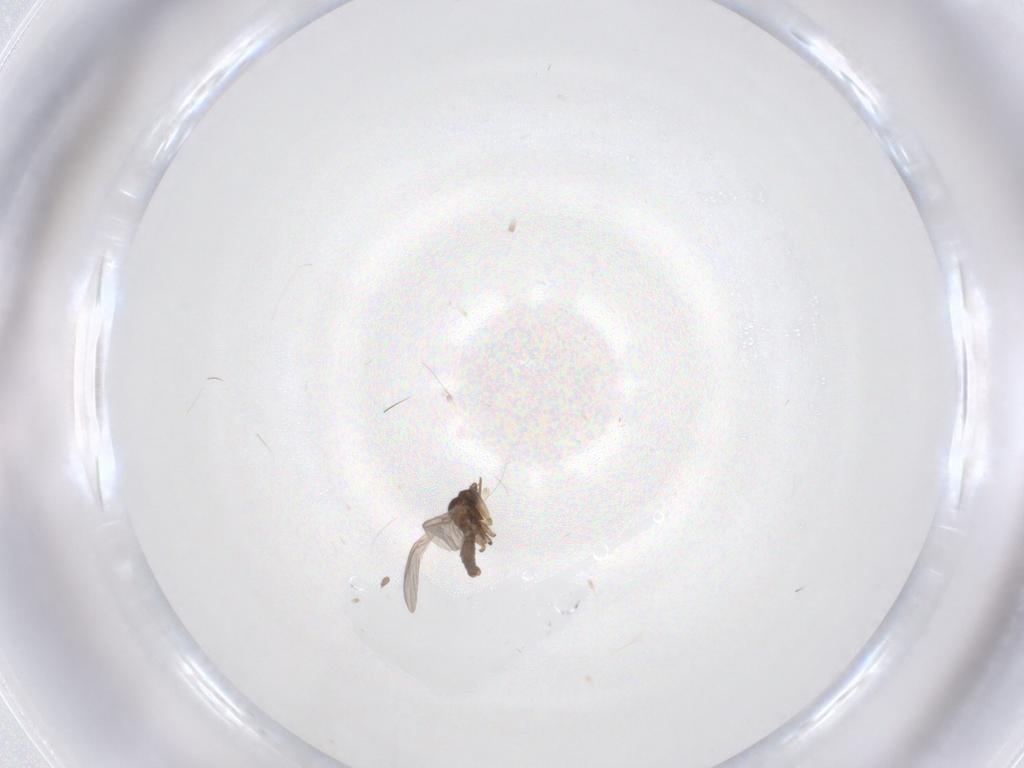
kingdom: Animalia
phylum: Arthropoda
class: Insecta
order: Diptera
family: Sciaridae
